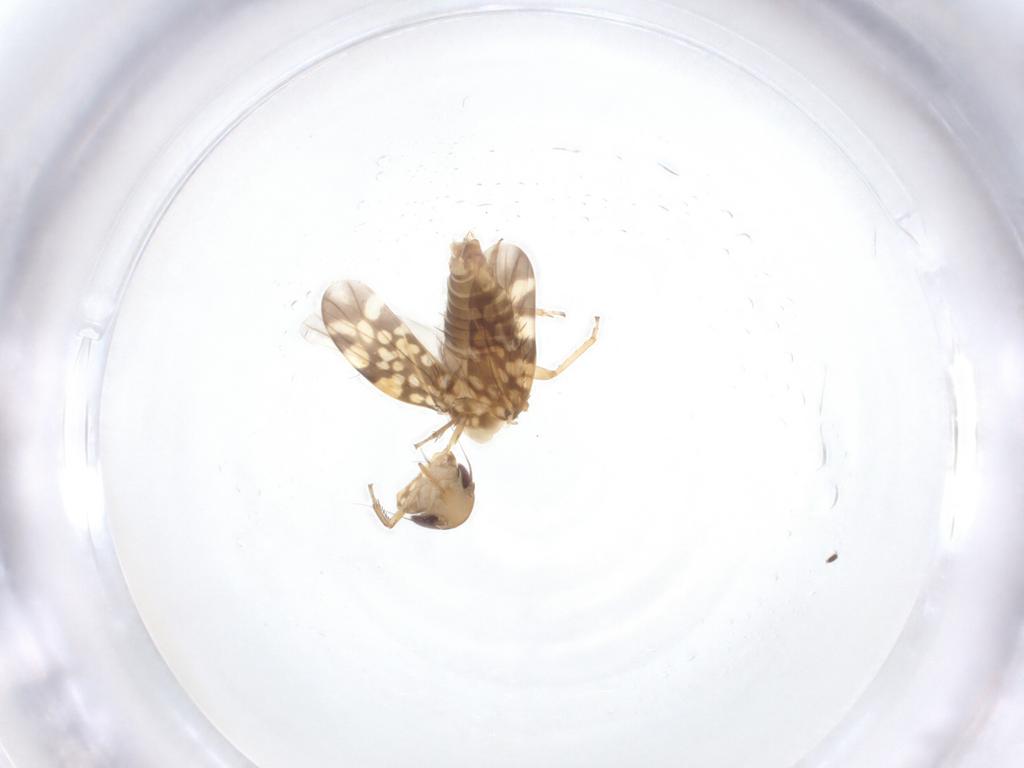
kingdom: Animalia
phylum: Arthropoda
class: Insecta
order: Hemiptera
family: Cicadellidae
